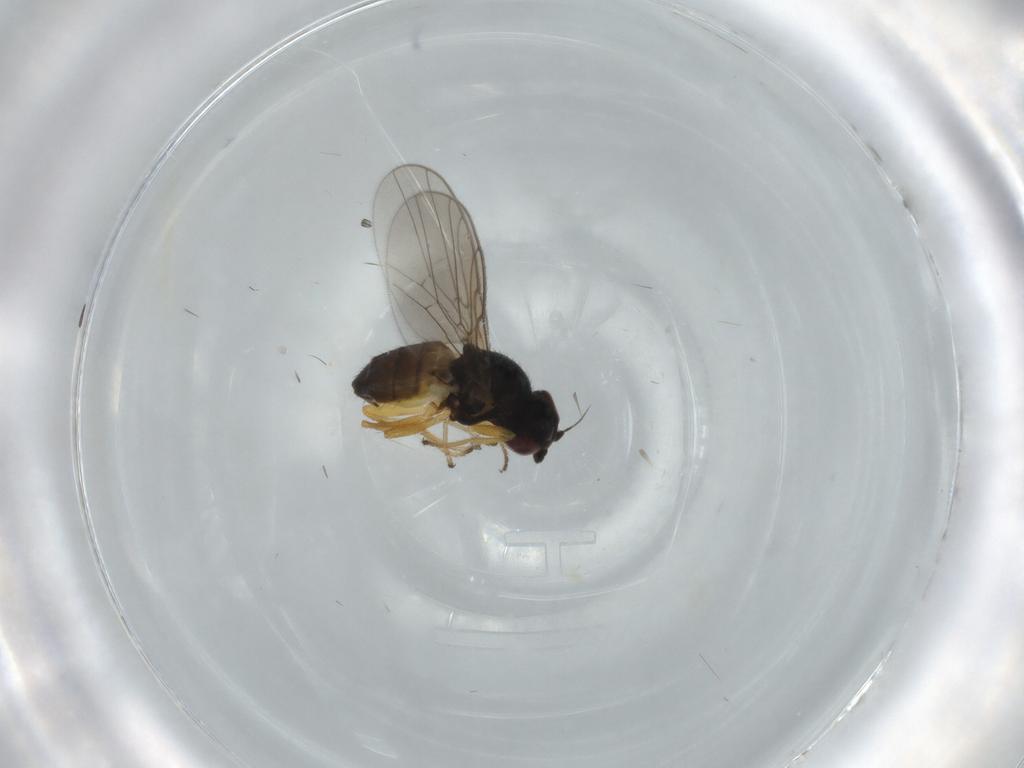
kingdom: Animalia
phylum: Arthropoda
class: Insecta
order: Diptera
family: Chloropidae
